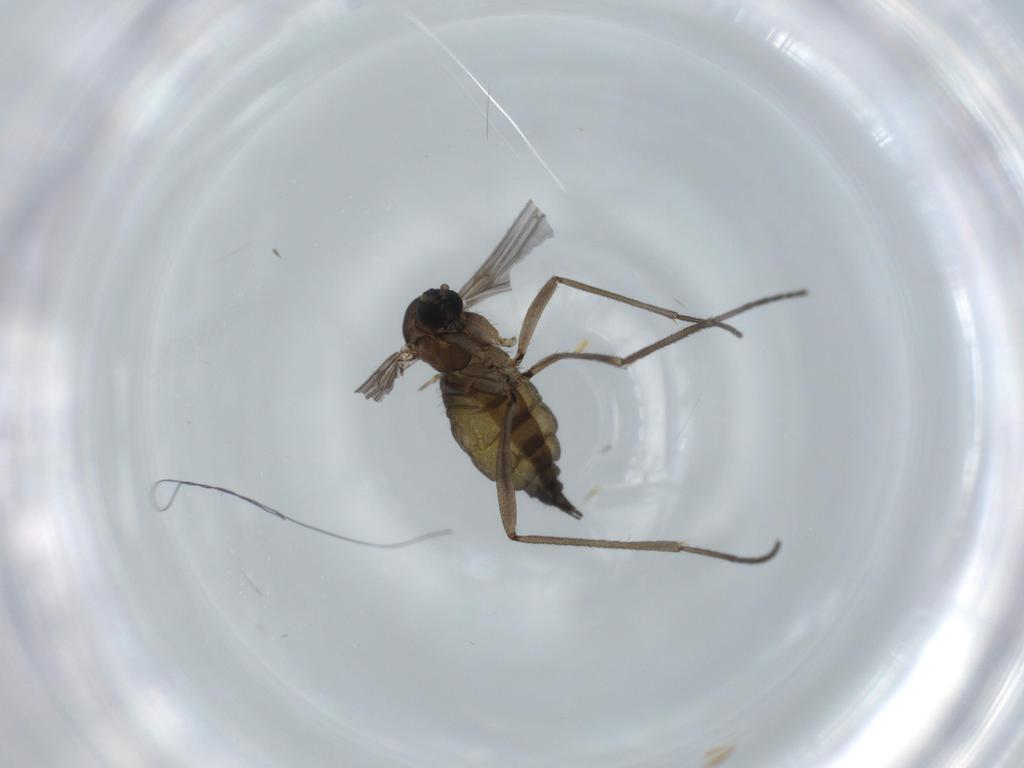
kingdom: Animalia
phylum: Arthropoda
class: Insecta
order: Diptera
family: Sciaridae
